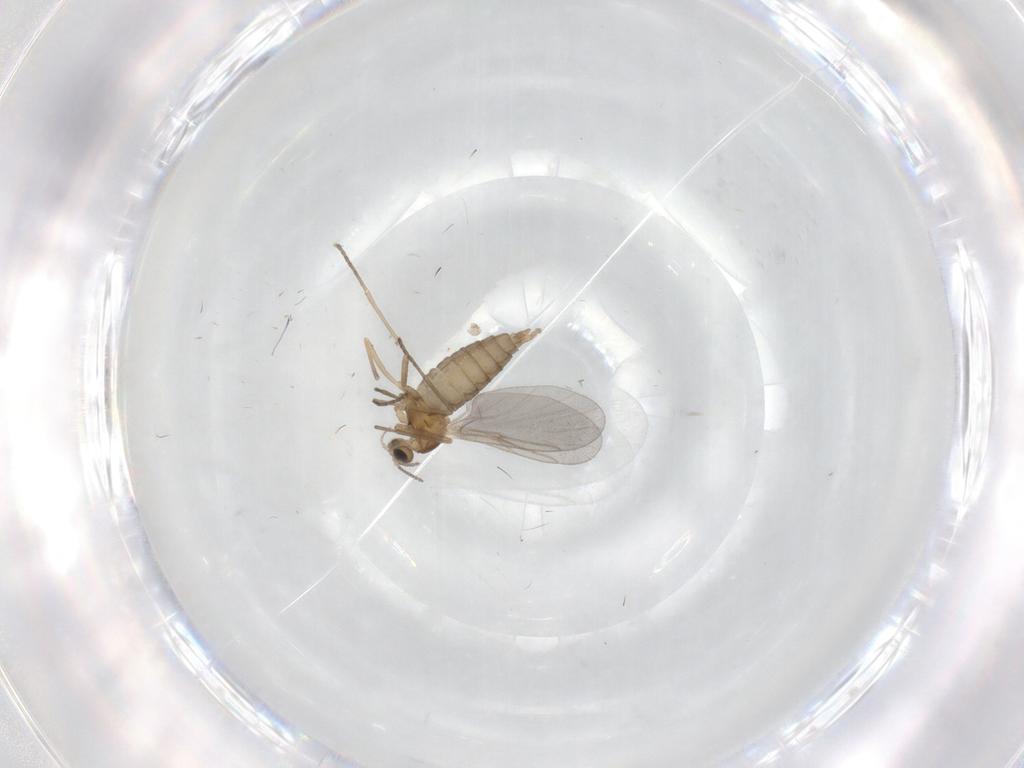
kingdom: Animalia
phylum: Arthropoda
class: Insecta
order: Diptera
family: Cecidomyiidae
